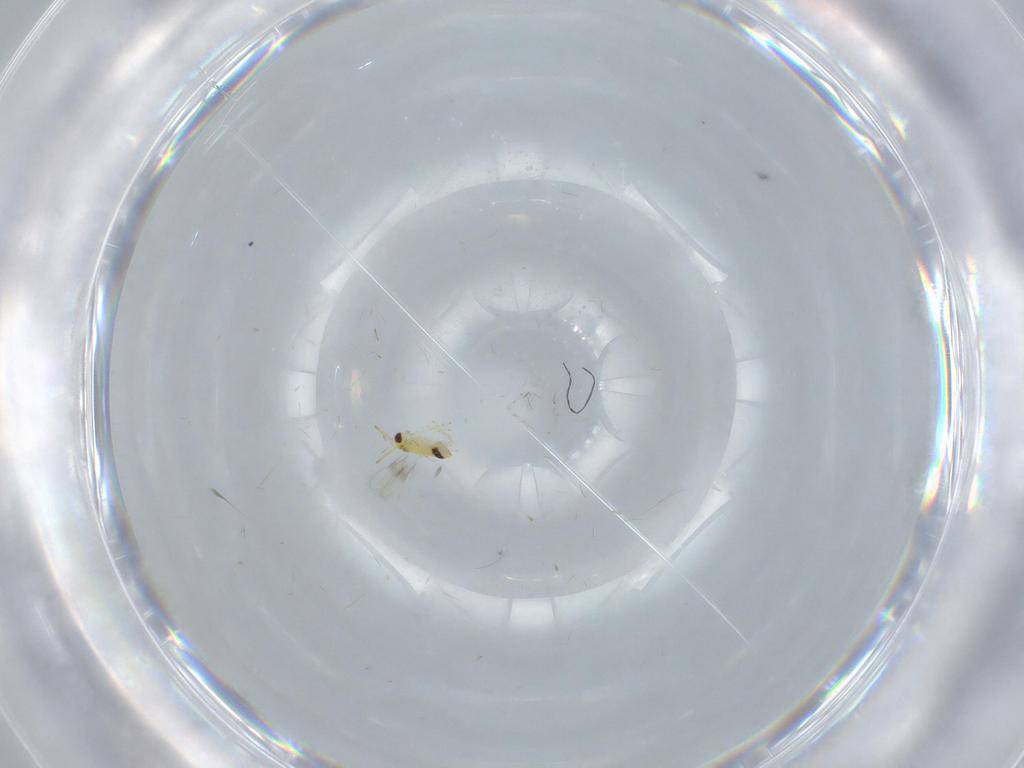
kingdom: Animalia
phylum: Arthropoda
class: Insecta
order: Hymenoptera
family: Aphelinidae
